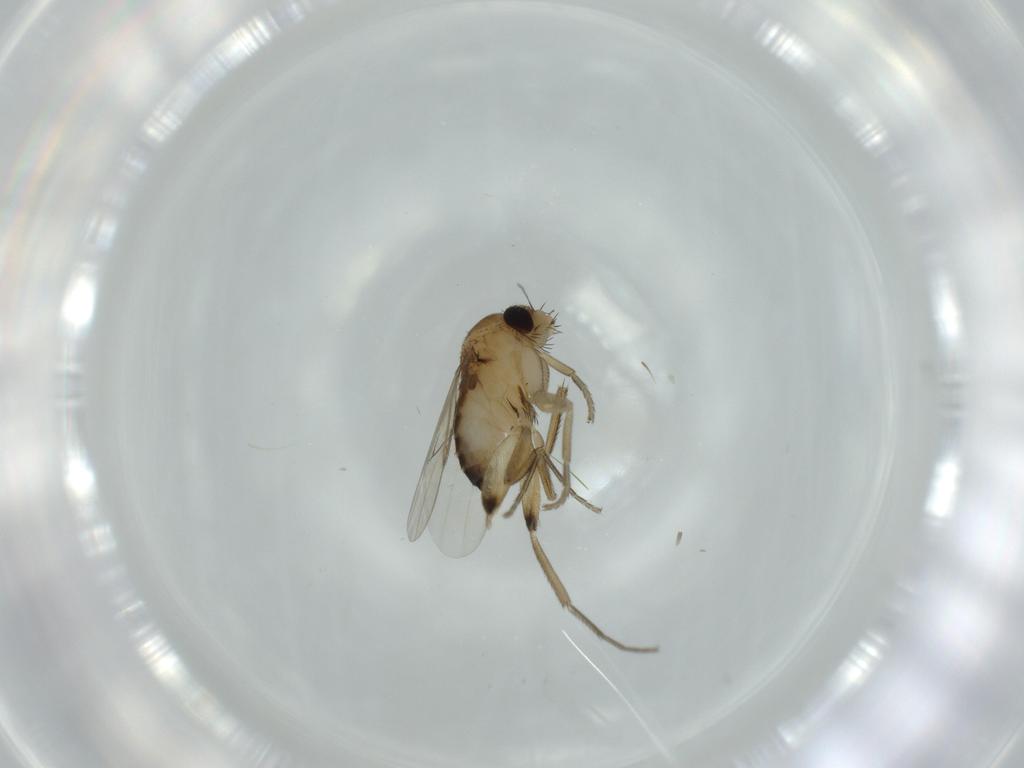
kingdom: Animalia
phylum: Arthropoda
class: Insecta
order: Diptera
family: Phoridae
